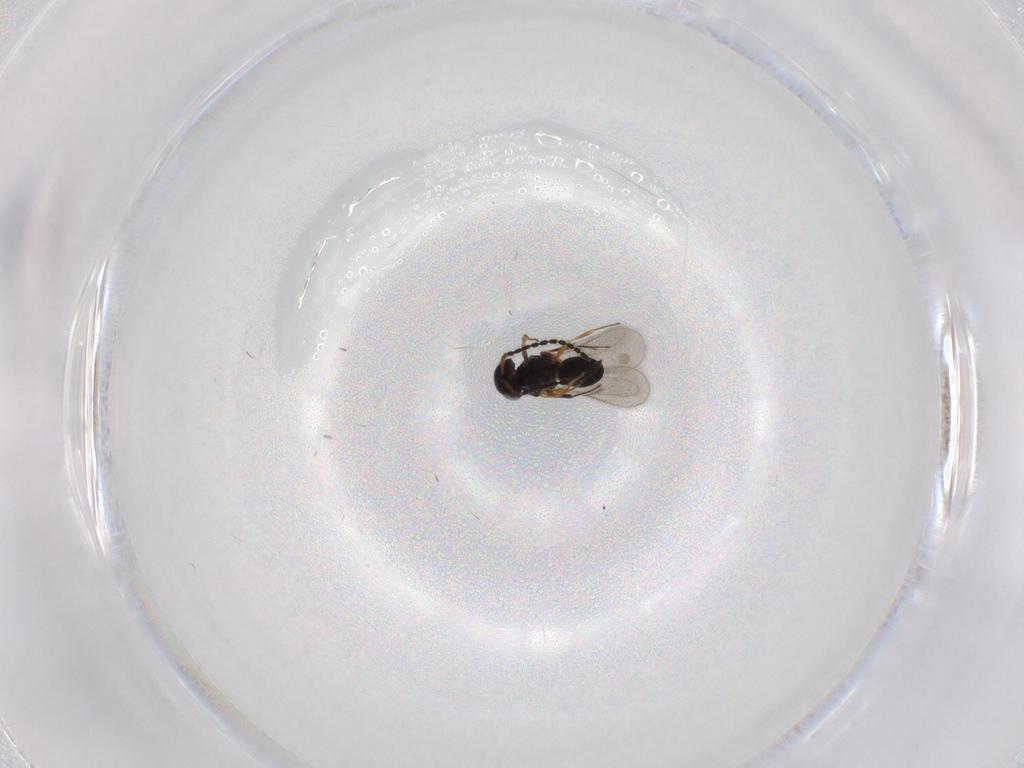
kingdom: Animalia
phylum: Arthropoda
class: Insecta
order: Hymenoptera
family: Scelionidae
